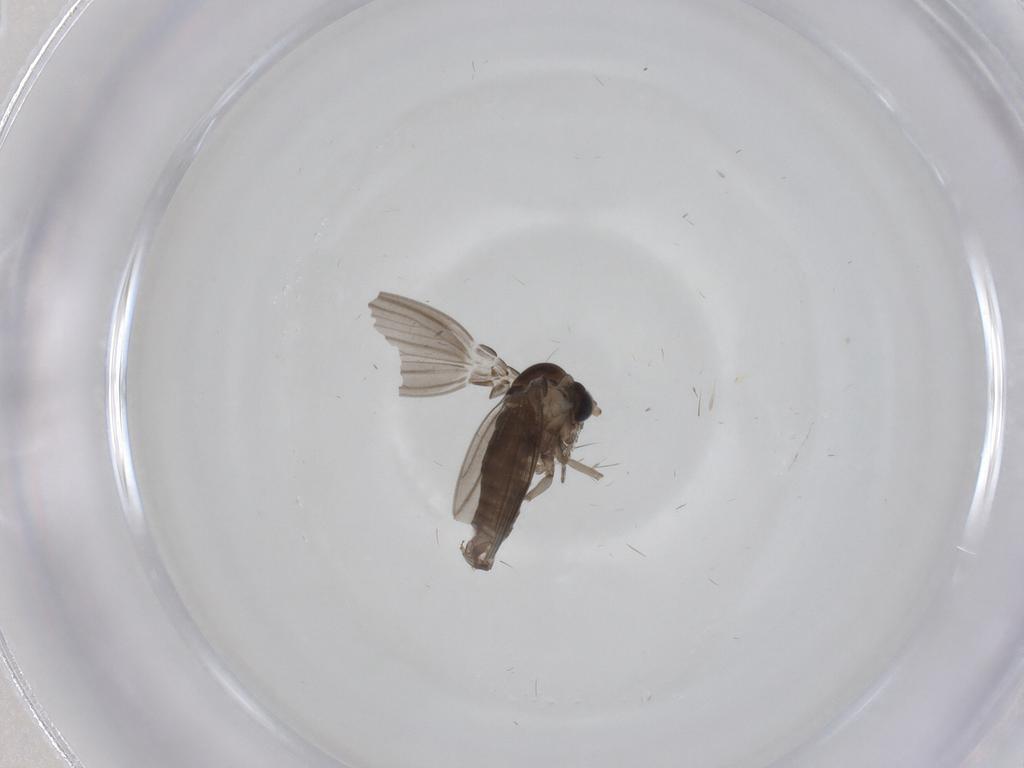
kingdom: Animalia
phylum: Arthropoda
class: Insecta
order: Diptera
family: Psychodidae
